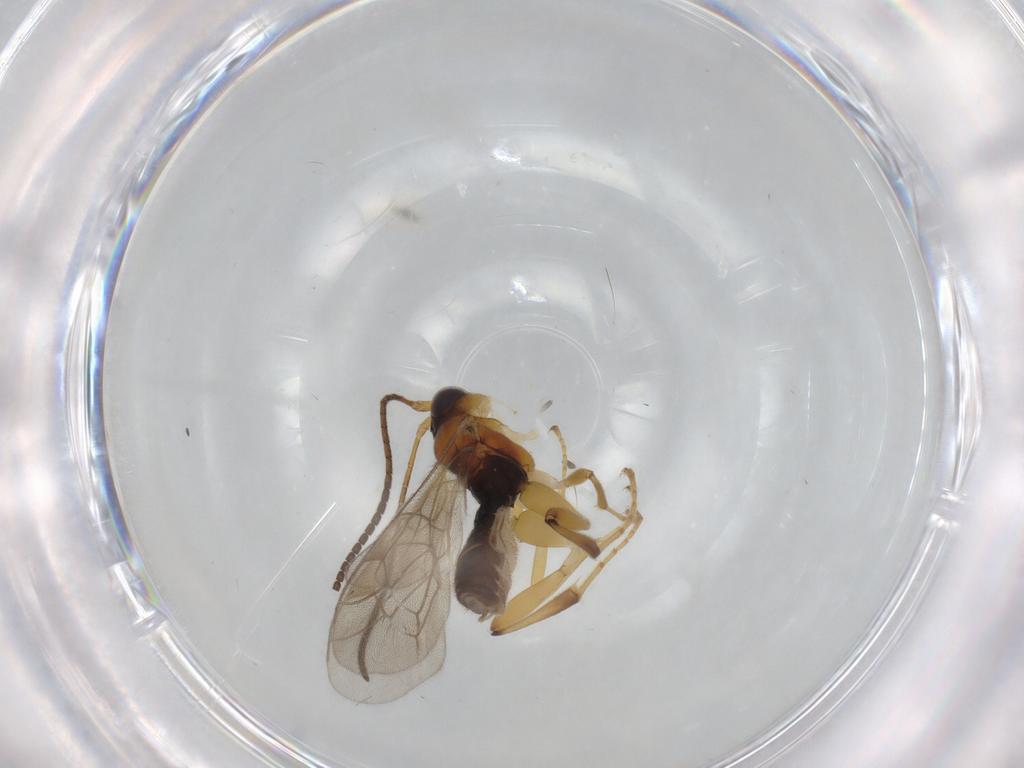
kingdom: Animalia
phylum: Arthropoda
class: Insecta
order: Hymenoptera
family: Ichneumonidae
